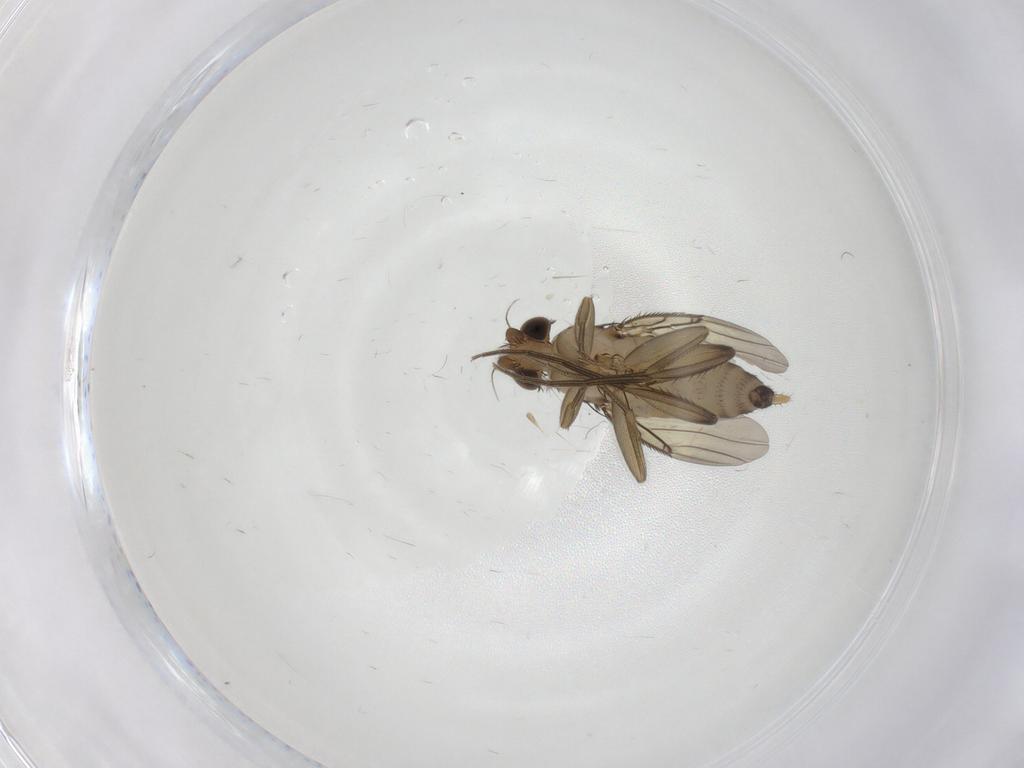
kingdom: Animalia
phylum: Arthropoda
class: Insecta
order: Diptera
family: Phoridae
